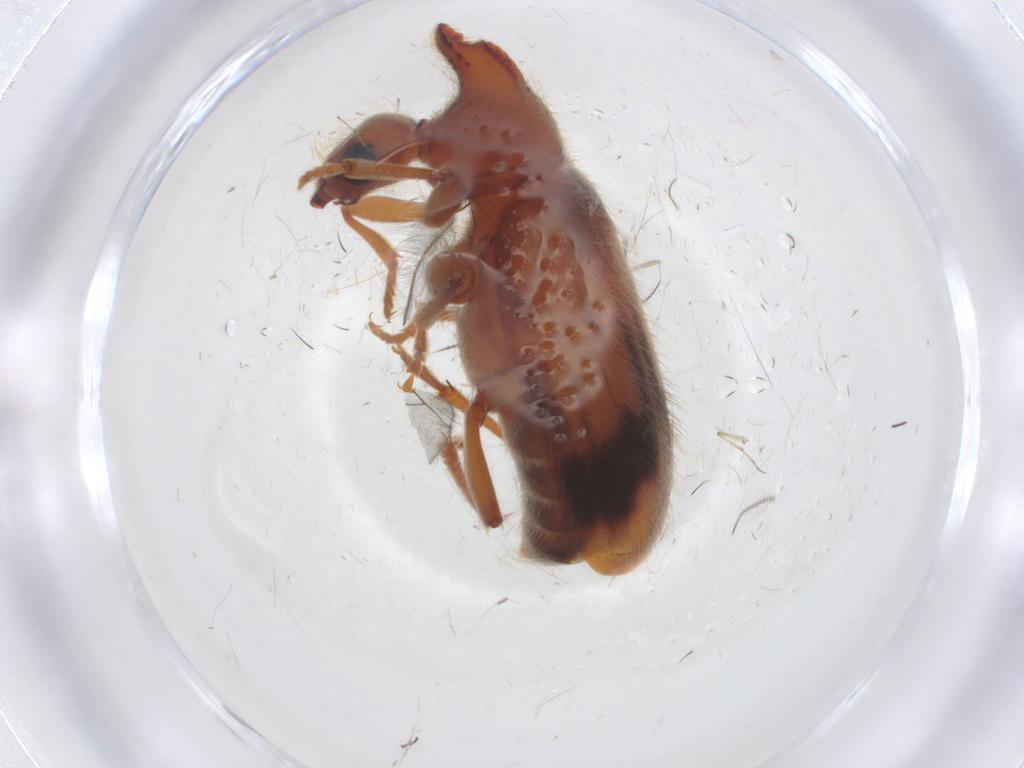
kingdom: Animalia
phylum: Arthropoda
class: Insecta
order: Coleoptera
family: Anthicidae
